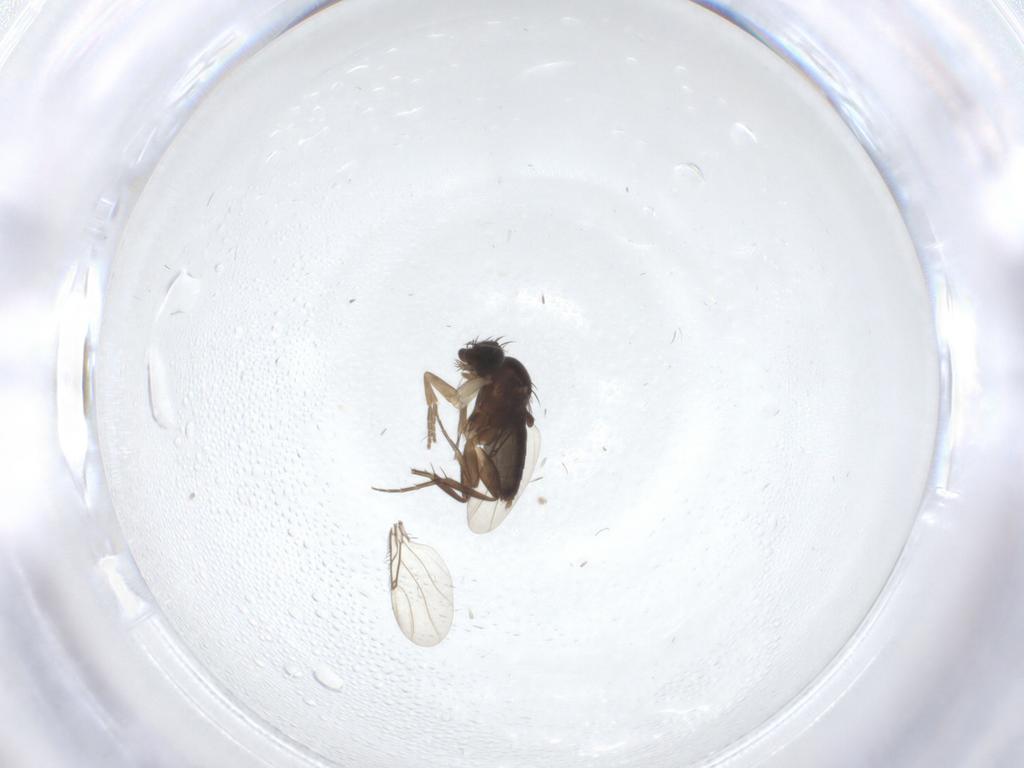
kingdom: Animalia
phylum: Arthropoda
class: Insecta
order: Diptera
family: Phoridae
